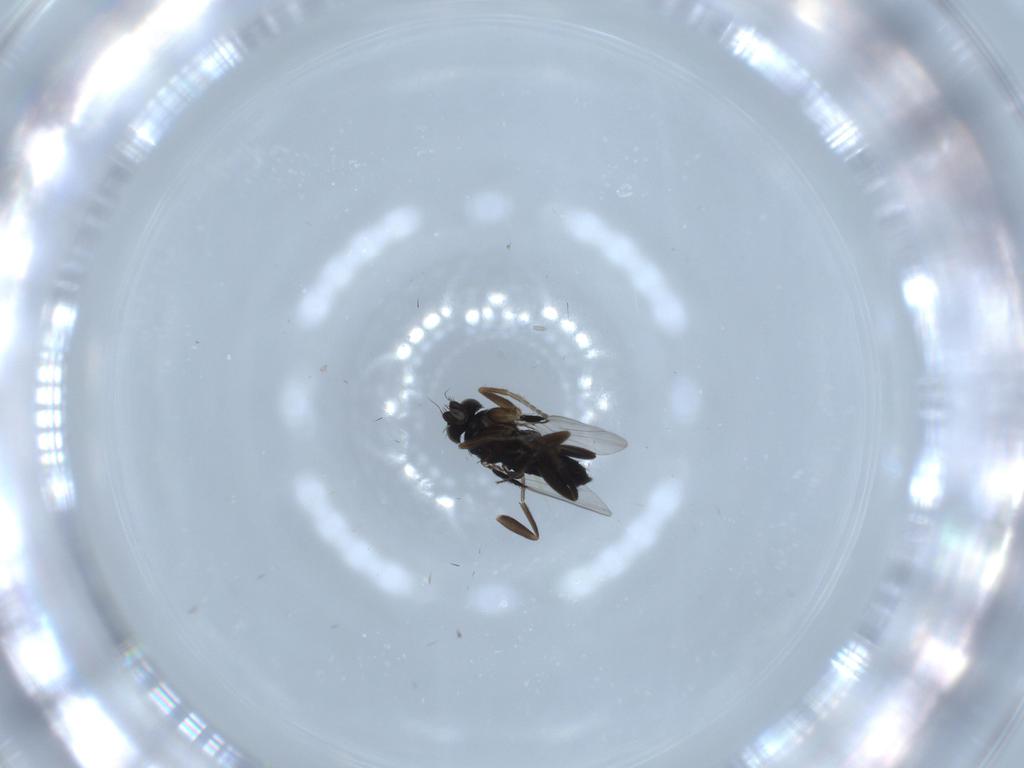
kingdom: Animalia
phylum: Arthropoda
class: Insecta
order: Diptera
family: Phoridae
